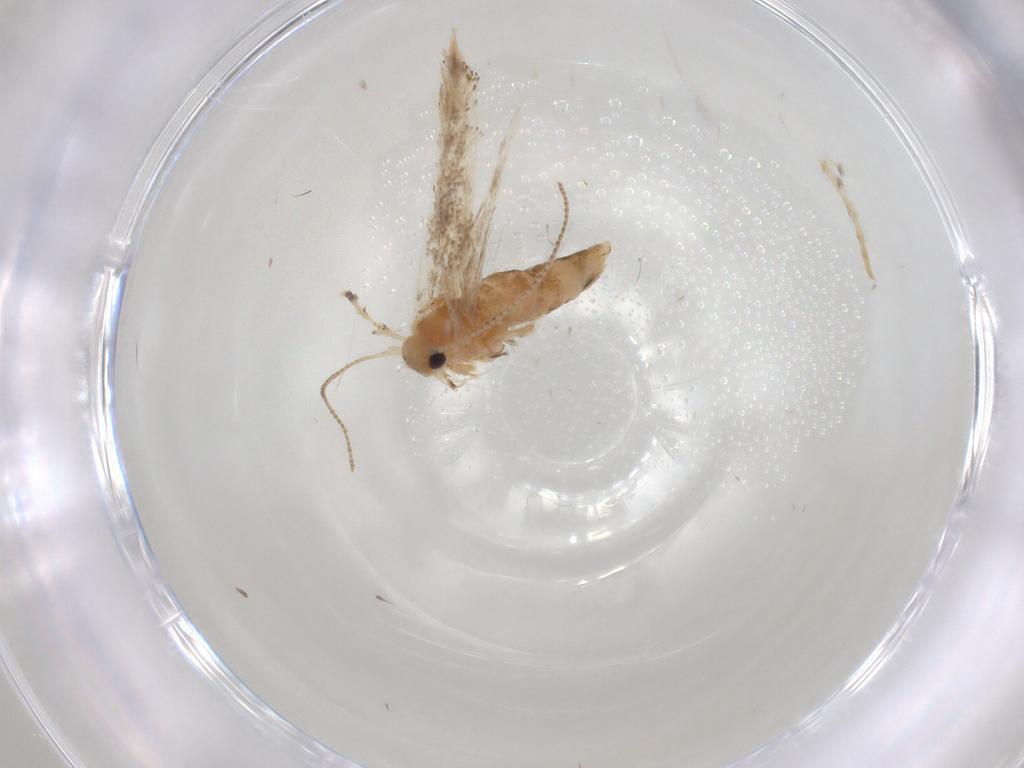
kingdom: Animalia
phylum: Arthropoda
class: Insecta
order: Lepidoptera
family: Gracillariidae
